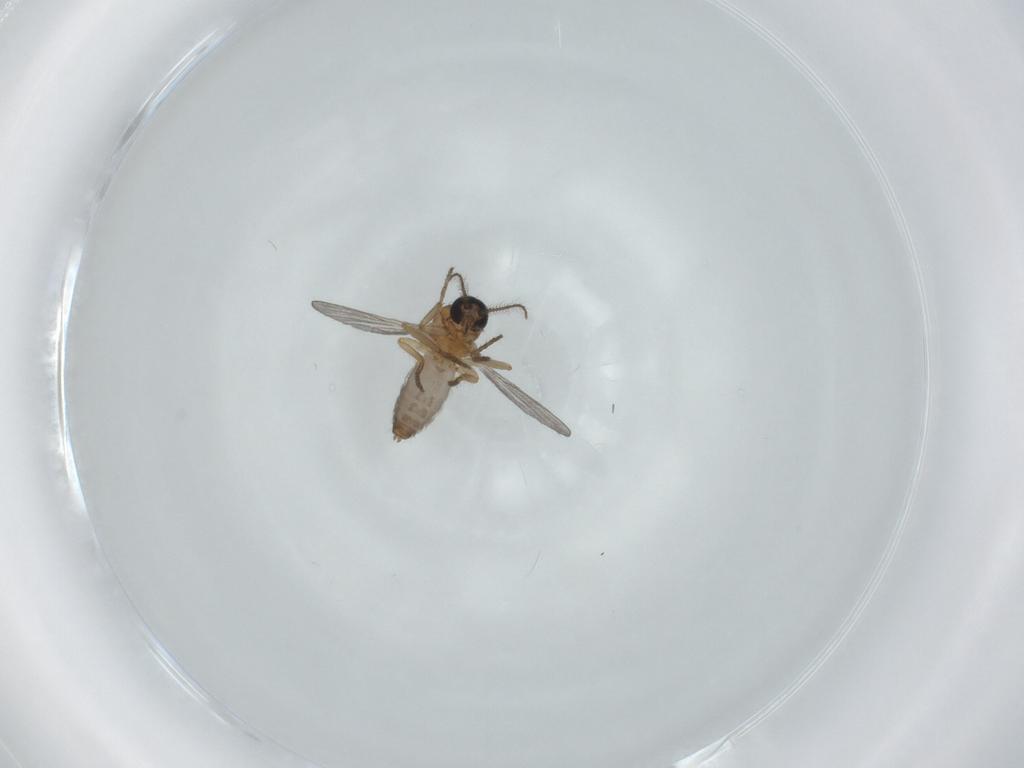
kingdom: Animalia
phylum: Arthropoda
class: Insecta
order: Diptera
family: Ceratopogonidae
